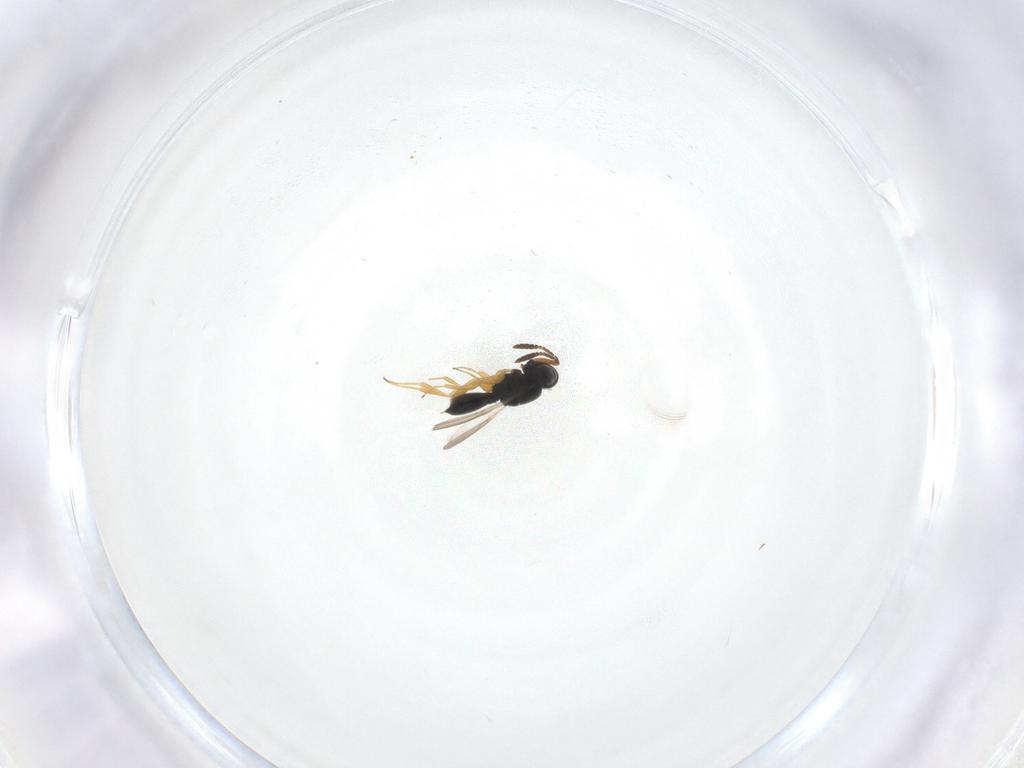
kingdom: Animalia
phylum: Arthropoda
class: Insecta
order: Hymenoptera
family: Scelionidae
